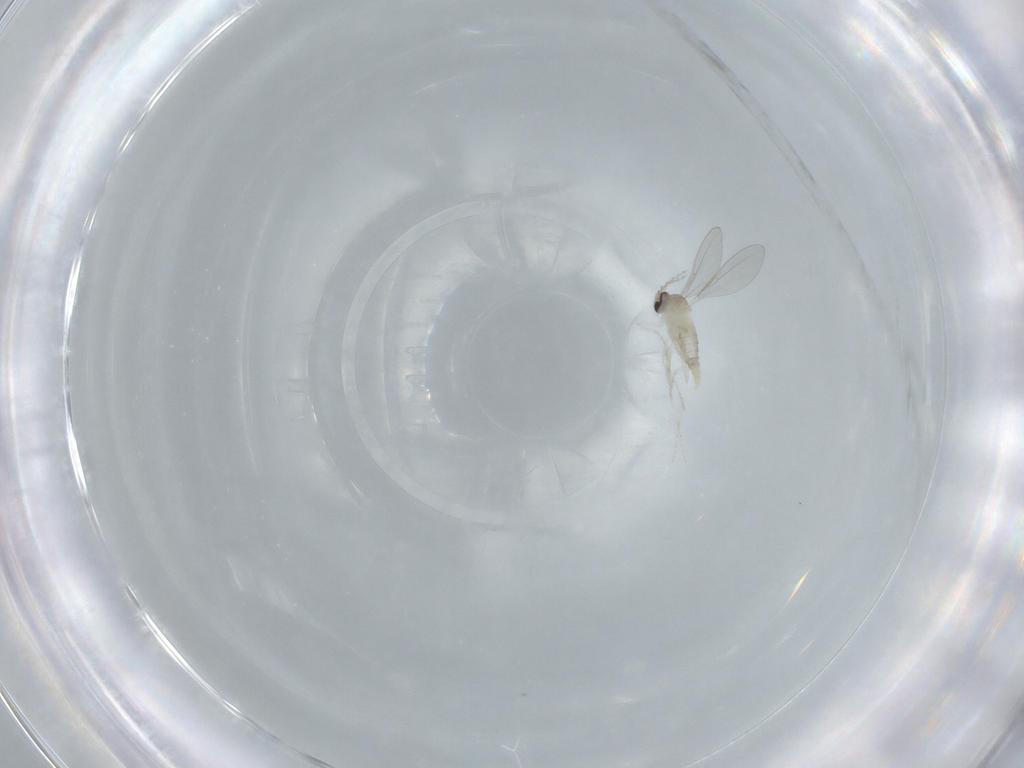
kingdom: Animalia
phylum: Arthropoda
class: Insecta
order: Diptera
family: Cecidomyiidae
